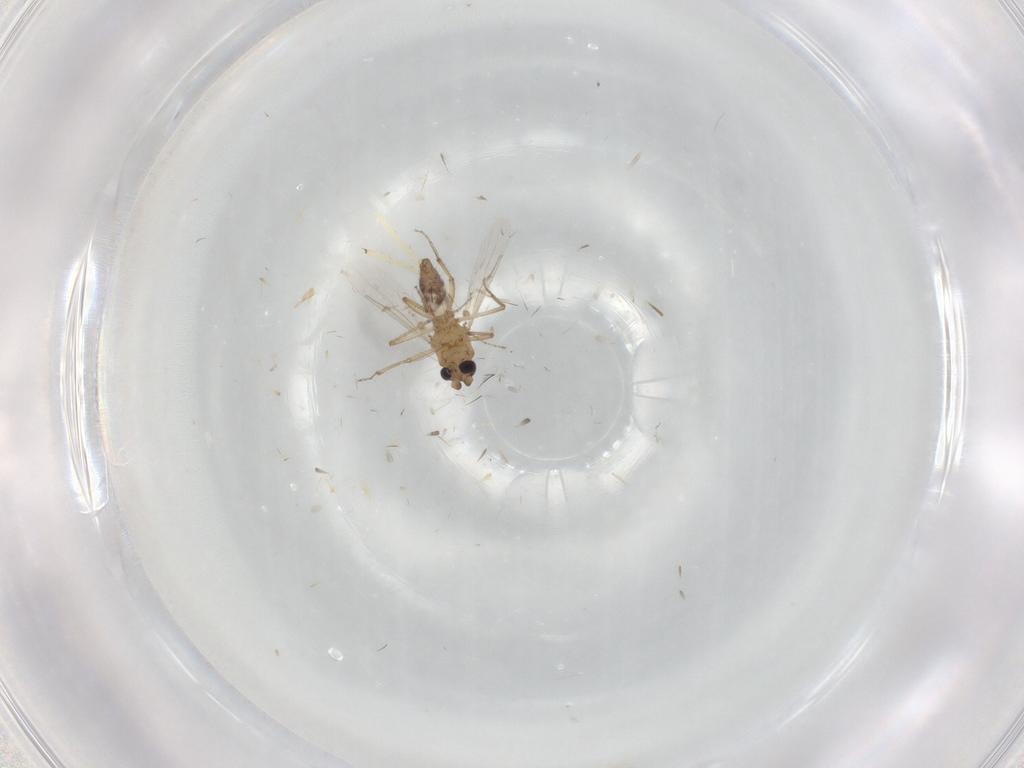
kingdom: Animalia
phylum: Arthropoda
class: Insecta
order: Diptera
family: Chironomidae
